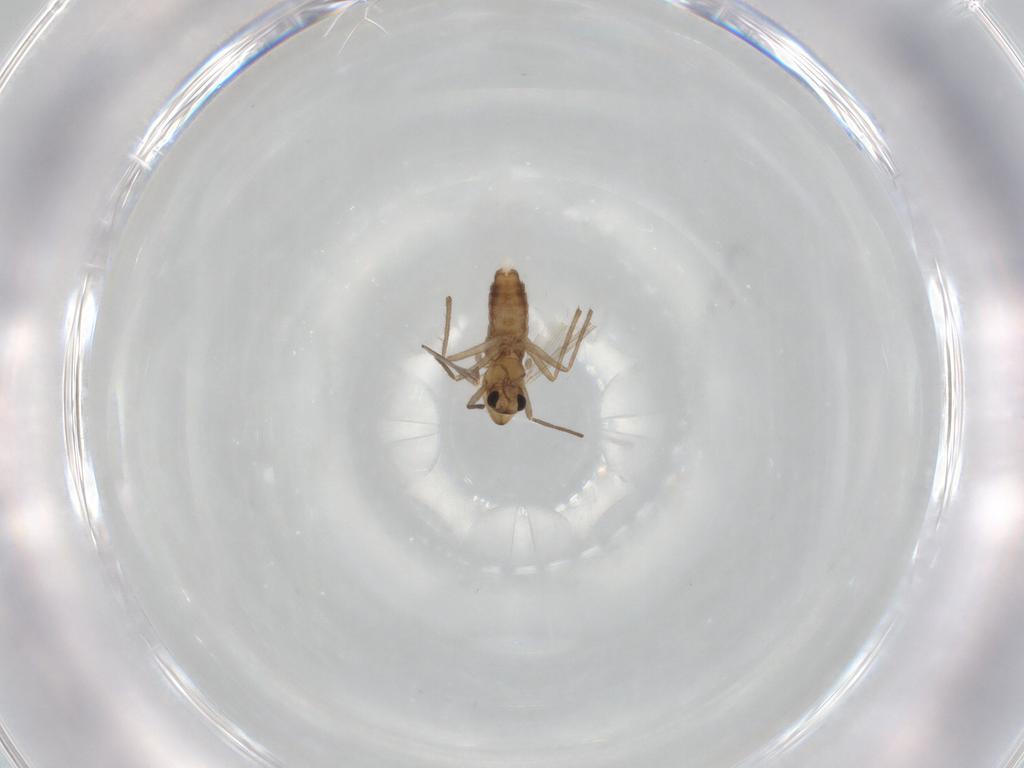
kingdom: Animalia
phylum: Arthropoda
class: Insecta
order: Diptera
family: Chironomidae
